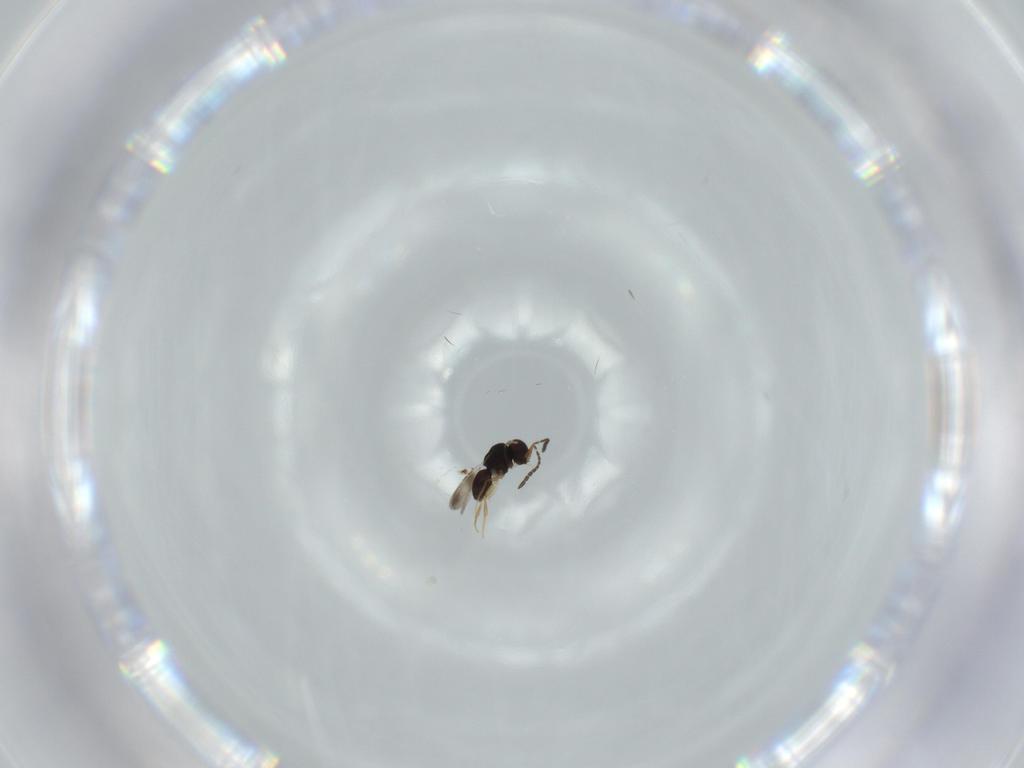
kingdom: Animalia
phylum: Arthropoda
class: Insecta
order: Hymenoptera
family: Ceraphronidae
